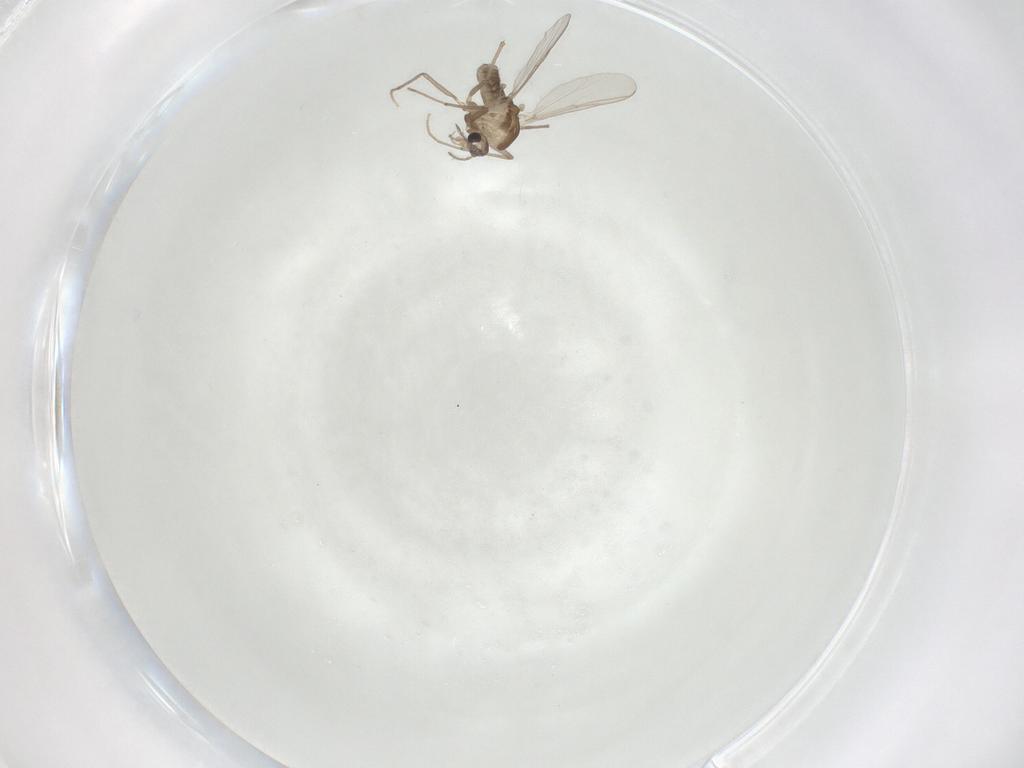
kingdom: Animalia
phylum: Arthropoda
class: Insecta
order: Diptera
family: Chironomidae
